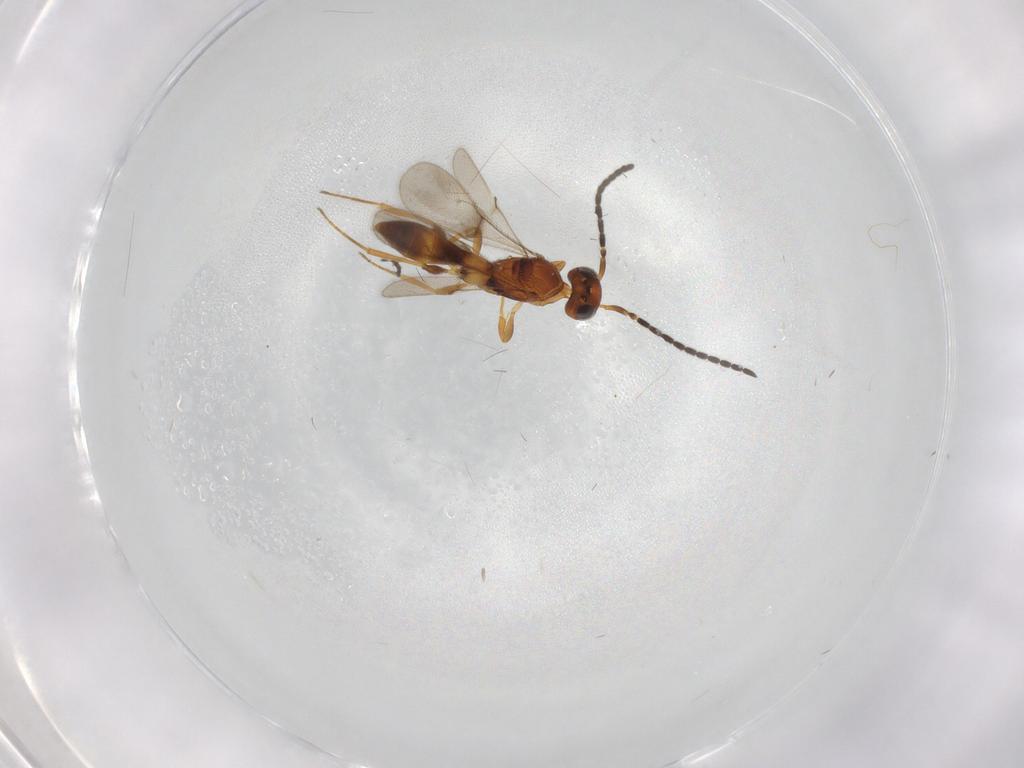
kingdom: Animalia
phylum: Arthropoda
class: Insecta
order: Hymenoptera
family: Scelionidae
